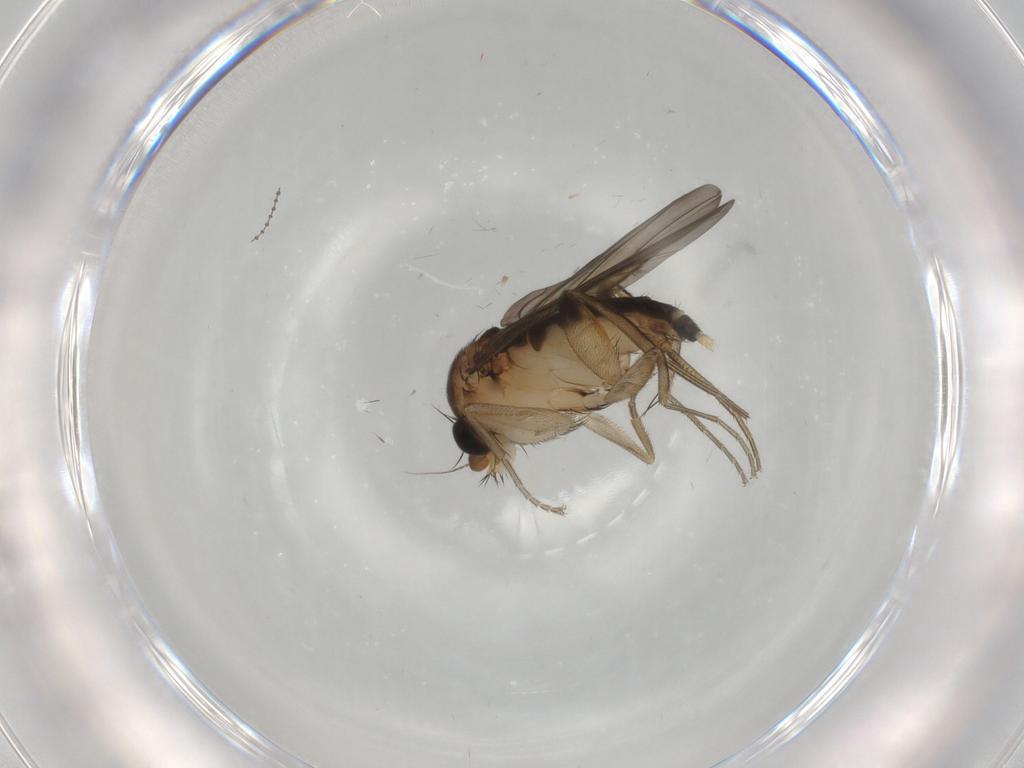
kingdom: Animalia
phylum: Arthropoda
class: Insecta
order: Diptera
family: Phoridae
